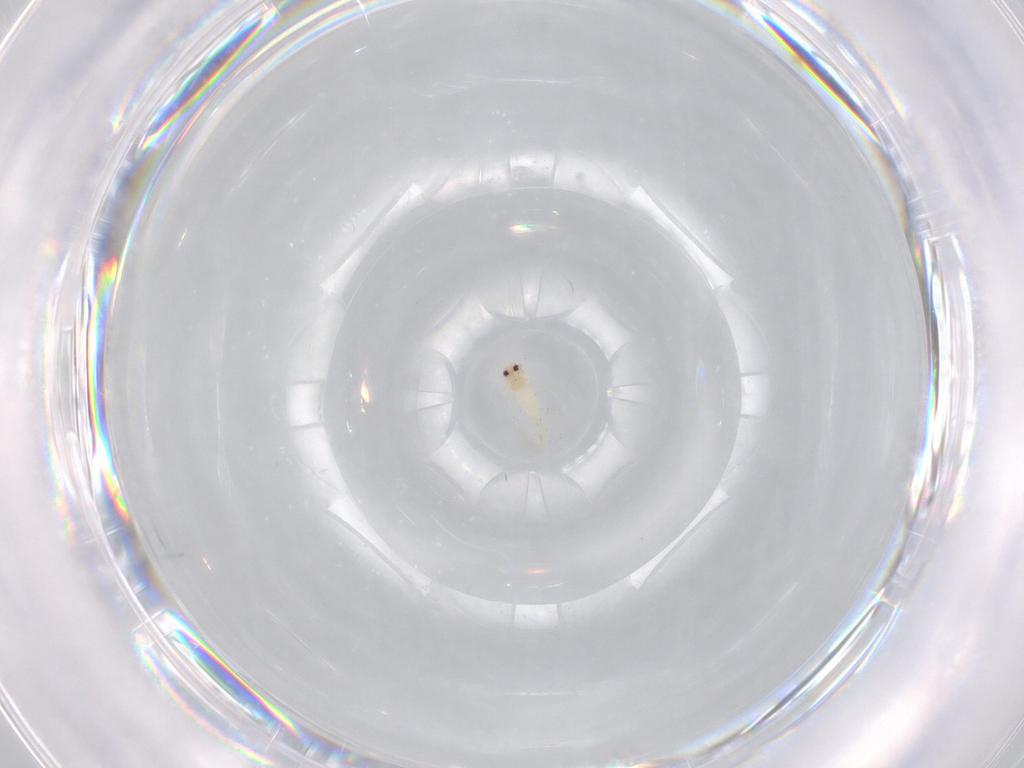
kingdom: Animalia
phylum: Arthropoda
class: Insecta
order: Hemiptera
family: Aleyrodidae
